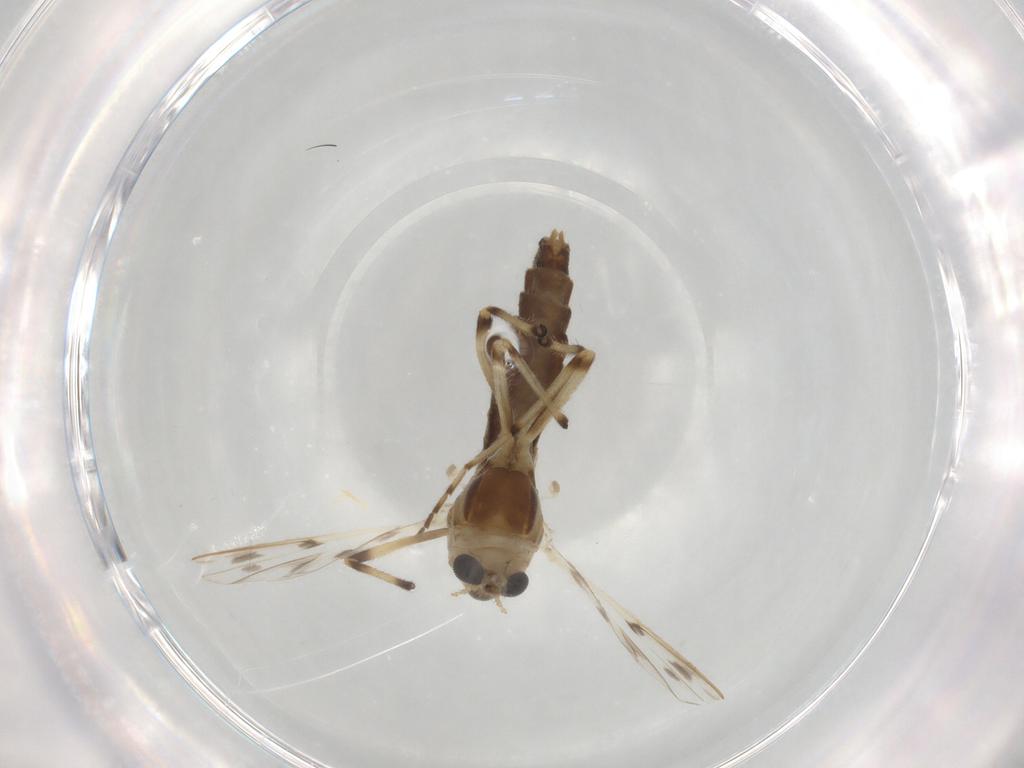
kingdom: Animalia
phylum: Arthropoda
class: Insecta
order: Diptera
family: Chironomidae
